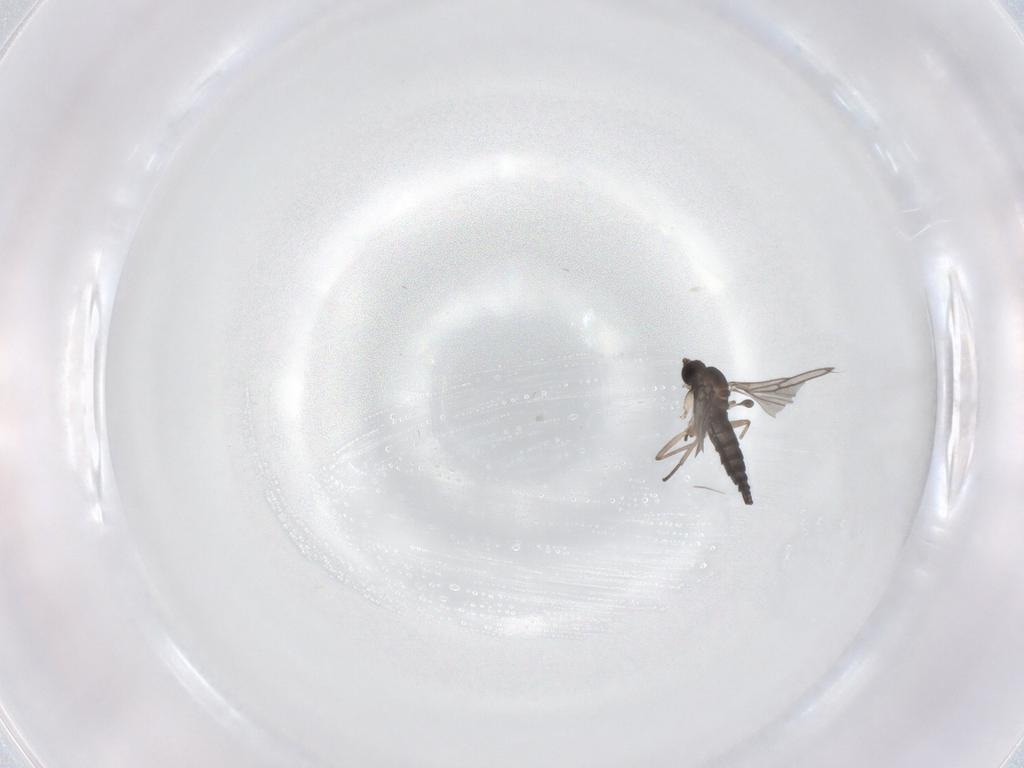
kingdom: Animalia
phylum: Arthropoda
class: Insecta
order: Diptera
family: Sciaridae
